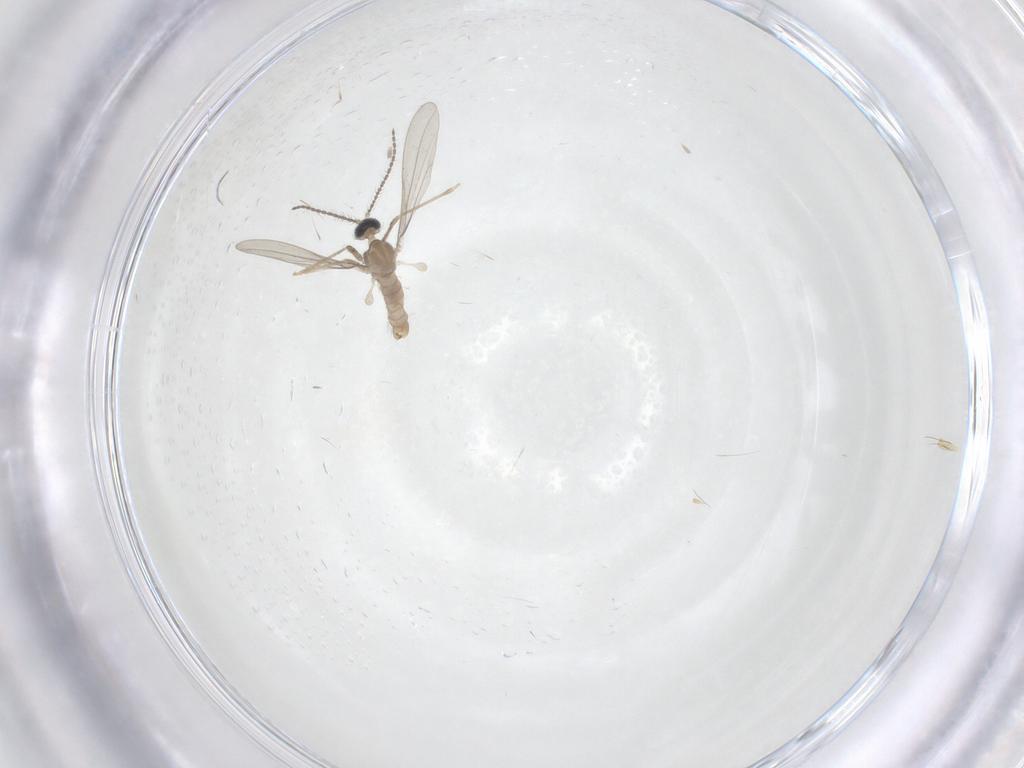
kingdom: Animalia
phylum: Arthropoda
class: Insecta
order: Diptera
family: Cecidomyiidae
